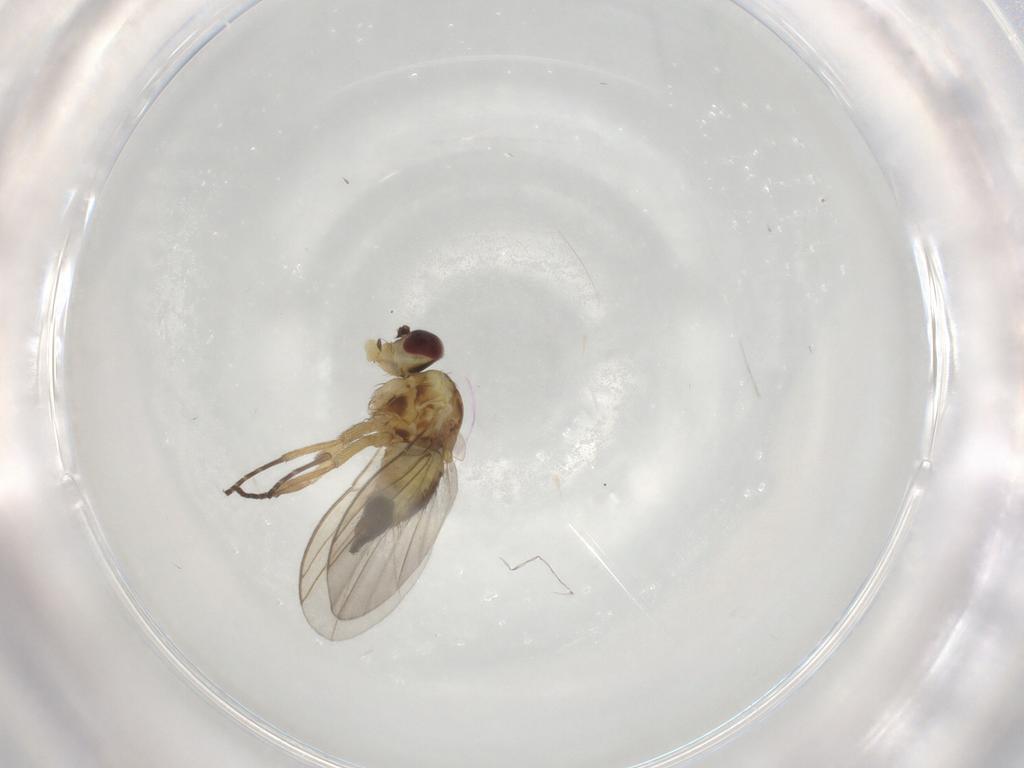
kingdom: Animalia
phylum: Arthropoda
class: Insecta
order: Diptera
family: Agromyzidae
